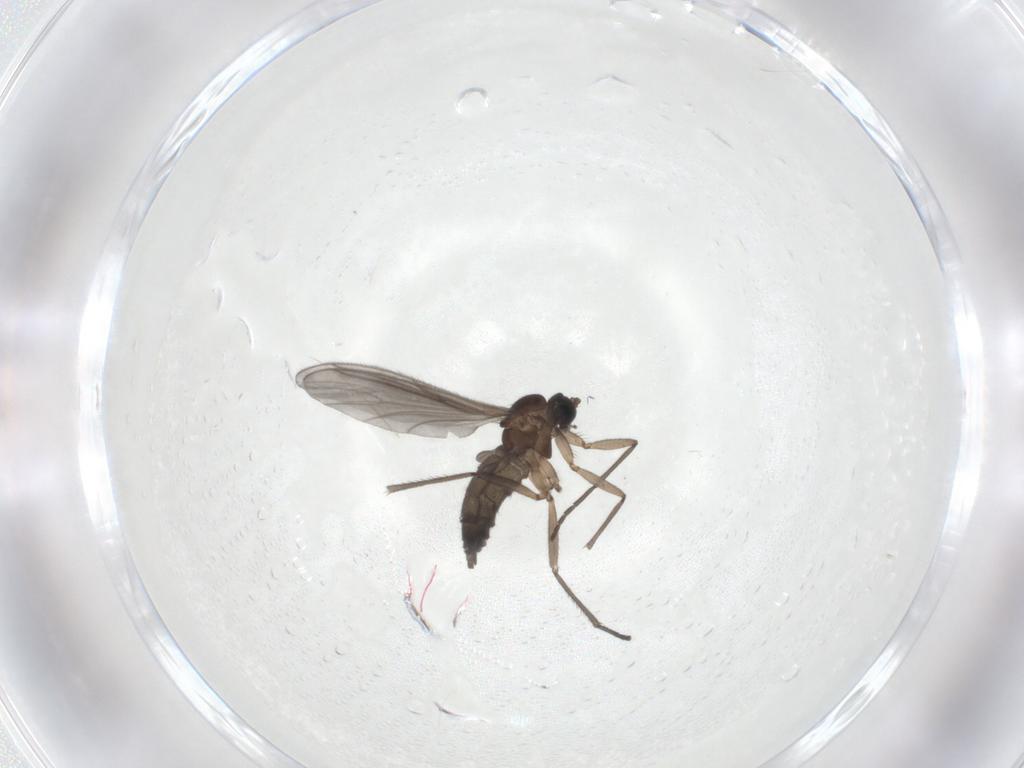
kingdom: Animalia
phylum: Arthropoda
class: Insecta
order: Diptera
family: Sciaridae
